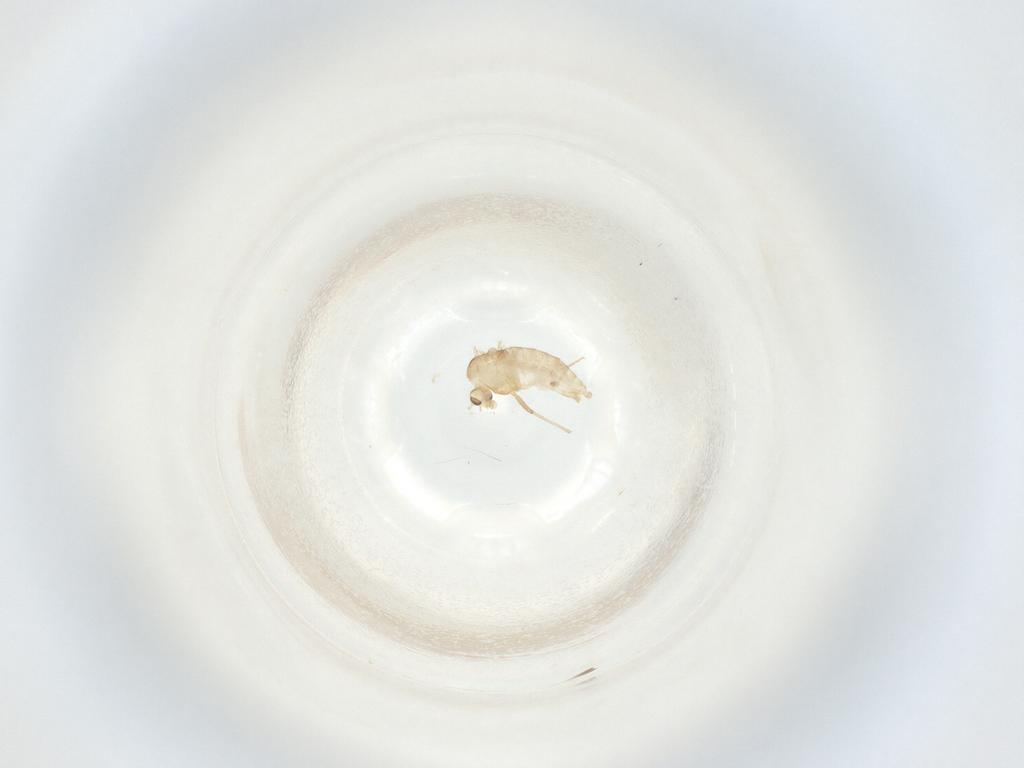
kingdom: Animalia
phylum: Arthropoda
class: Insecta
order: Diptera
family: Chironomidae
